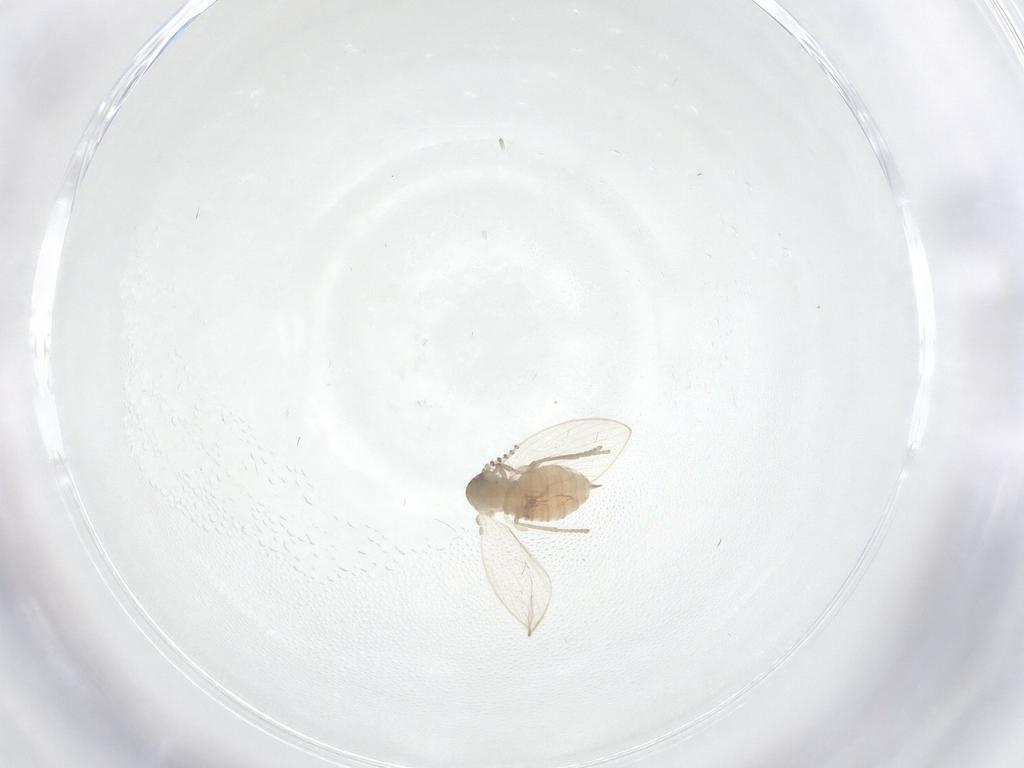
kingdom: Animalia
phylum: Arthropoda
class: Insecta
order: Diptera
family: Psychodidae
